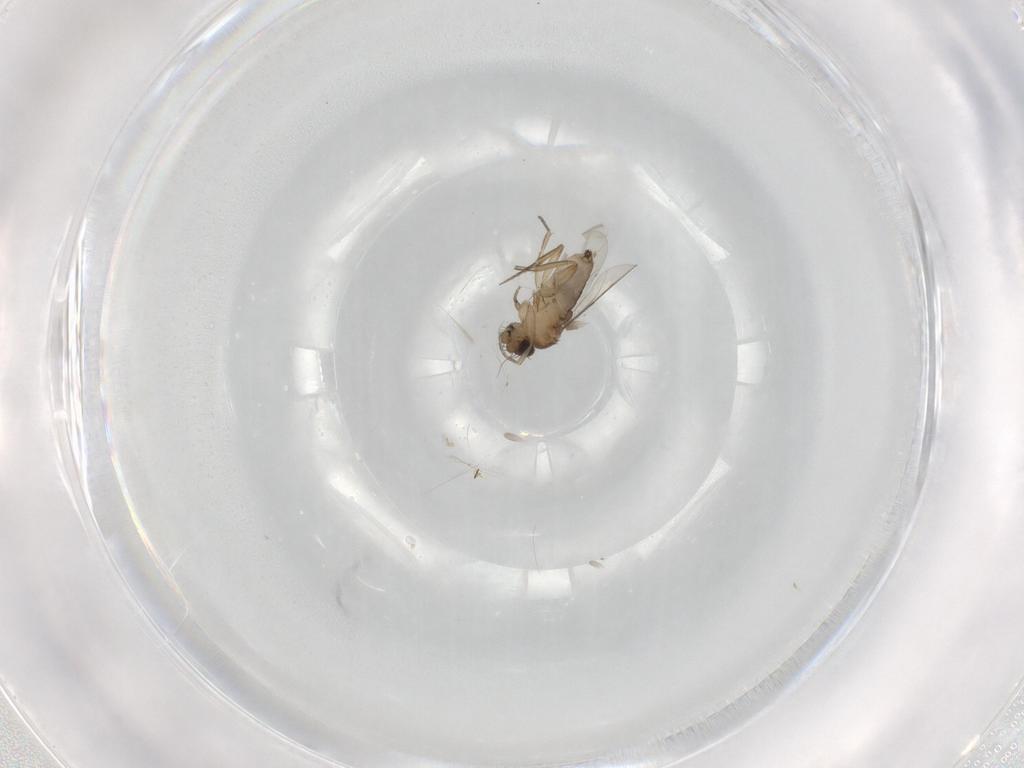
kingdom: Animalia
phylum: Arthropoda
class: Insecta
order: Diptera
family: Phoridae
